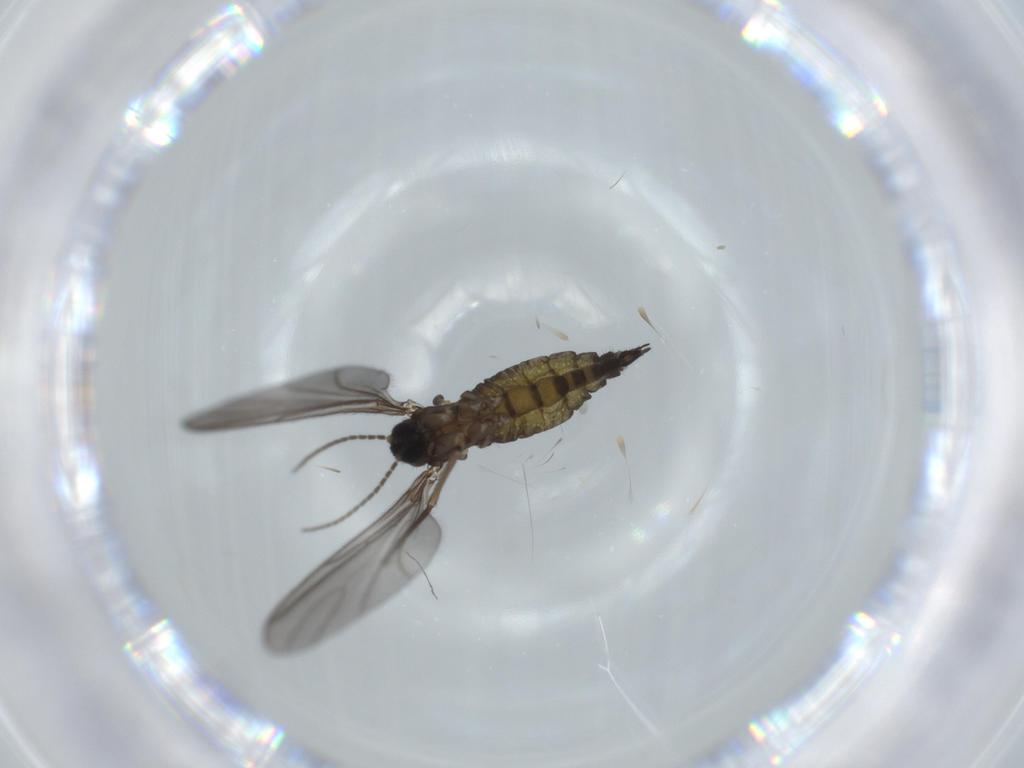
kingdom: Animalia
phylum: Arthropoda
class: Insecta
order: Diptera
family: Sciaridae
